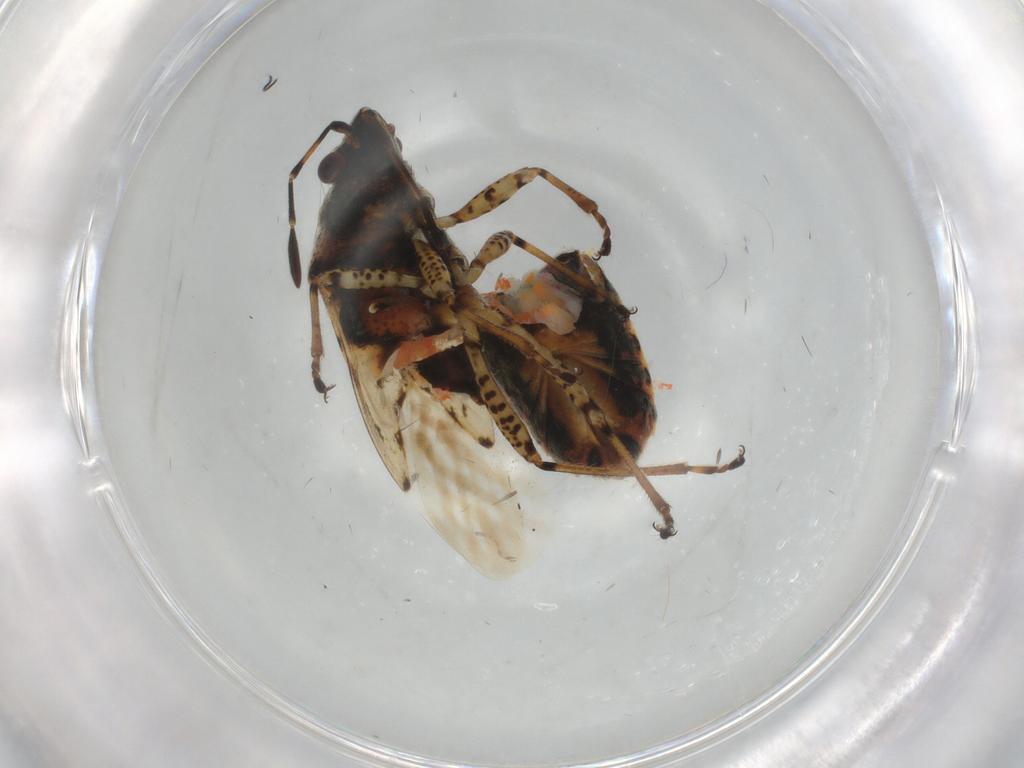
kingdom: Animalia
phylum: Arthropoda
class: Insecta
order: Hemiptera
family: Lygaeidae
